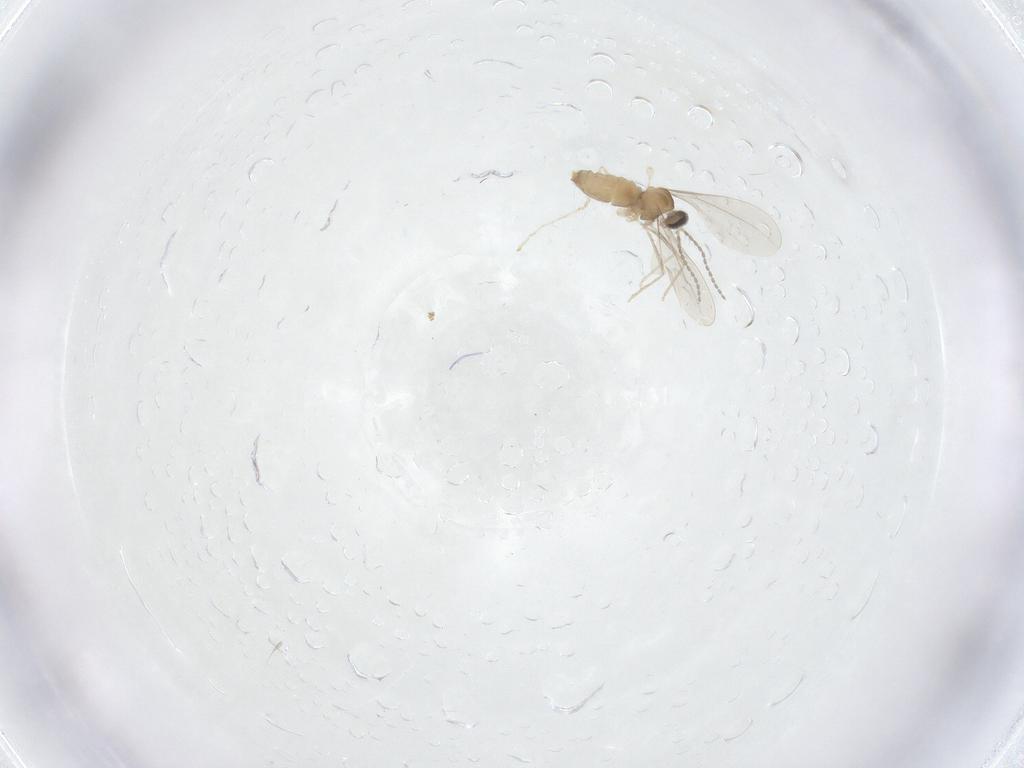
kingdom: Animalia
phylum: Arthropoda
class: Insecta
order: Diptera
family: Cecidomyiidae
